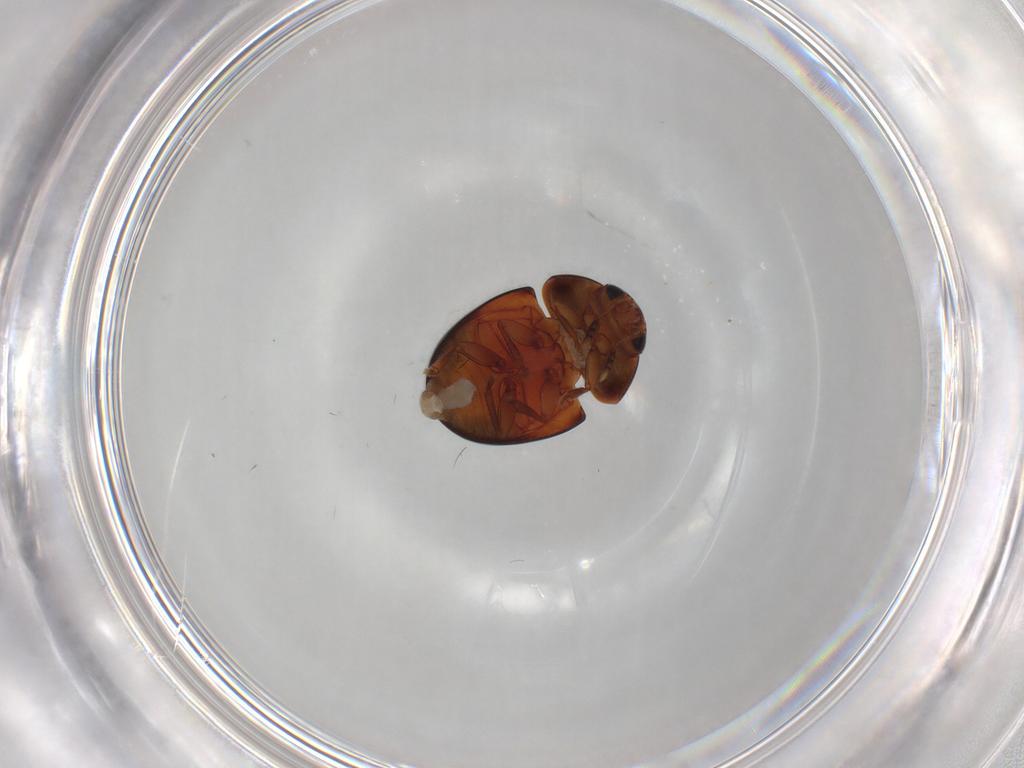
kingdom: Animalia
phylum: Arthropoda
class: Insecta
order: Coleoptera
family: Phalacridae
